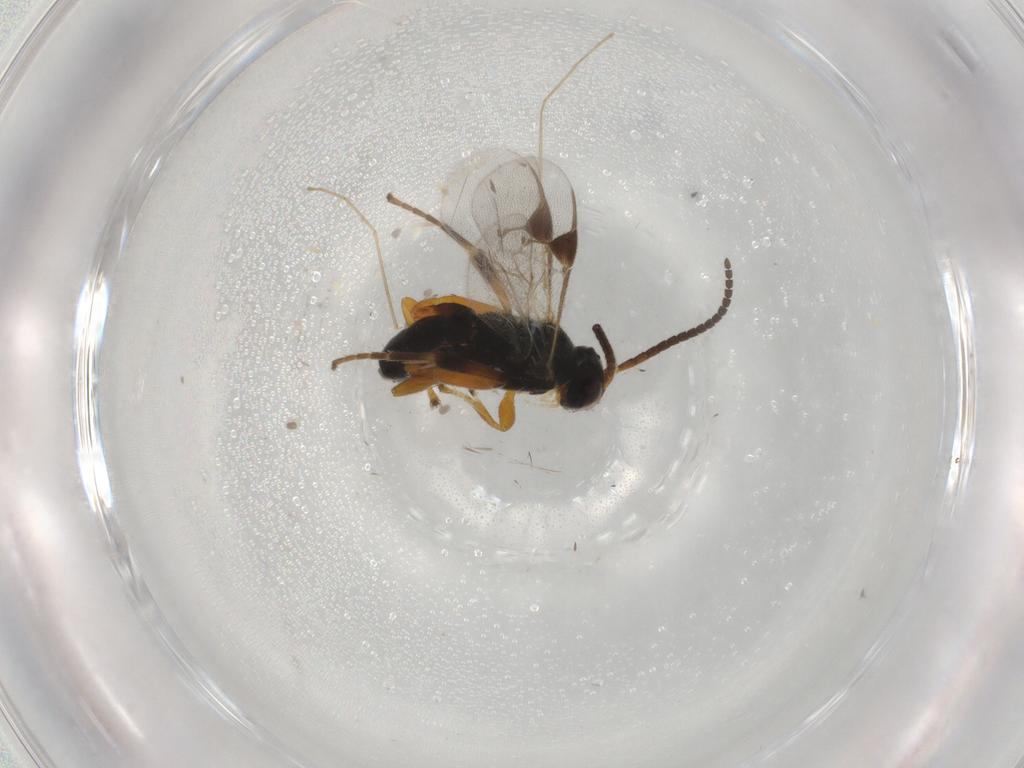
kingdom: Animalia
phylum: Arthropoda
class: Insecta
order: Hymenoptera
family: Braconidae
